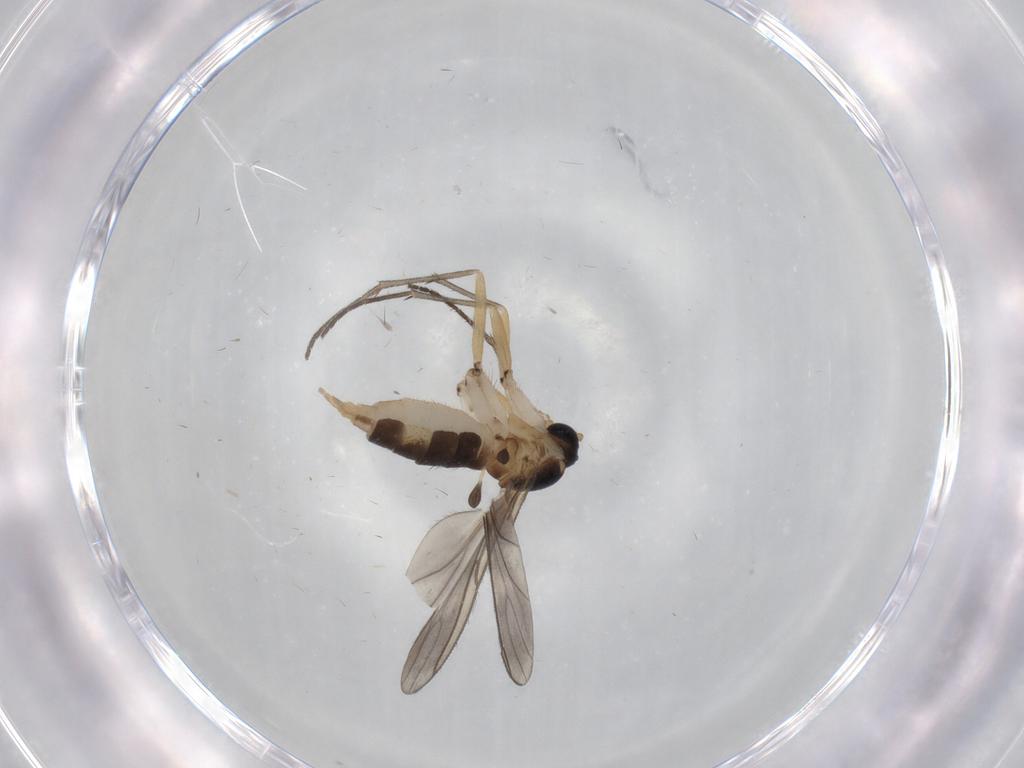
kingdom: Animalia
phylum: Arthropoda
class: Insecta
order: Diptera
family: Sciaridae
